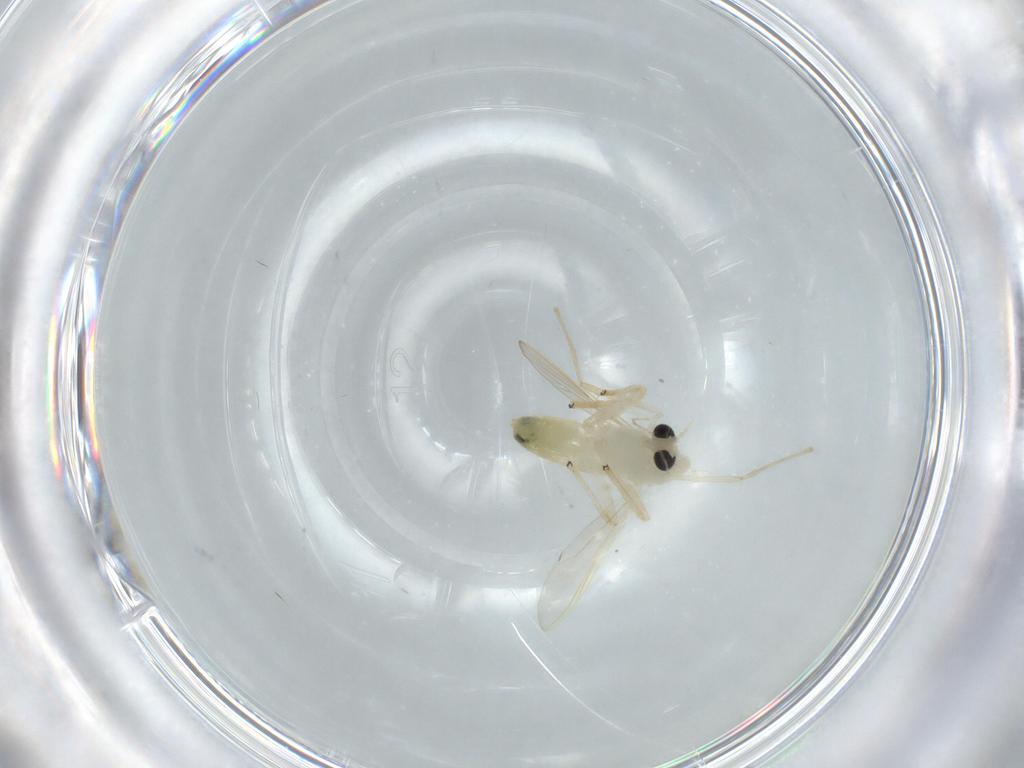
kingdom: Animalia
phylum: Arthropoda
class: Insecta
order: Diptera
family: Chironomidae
